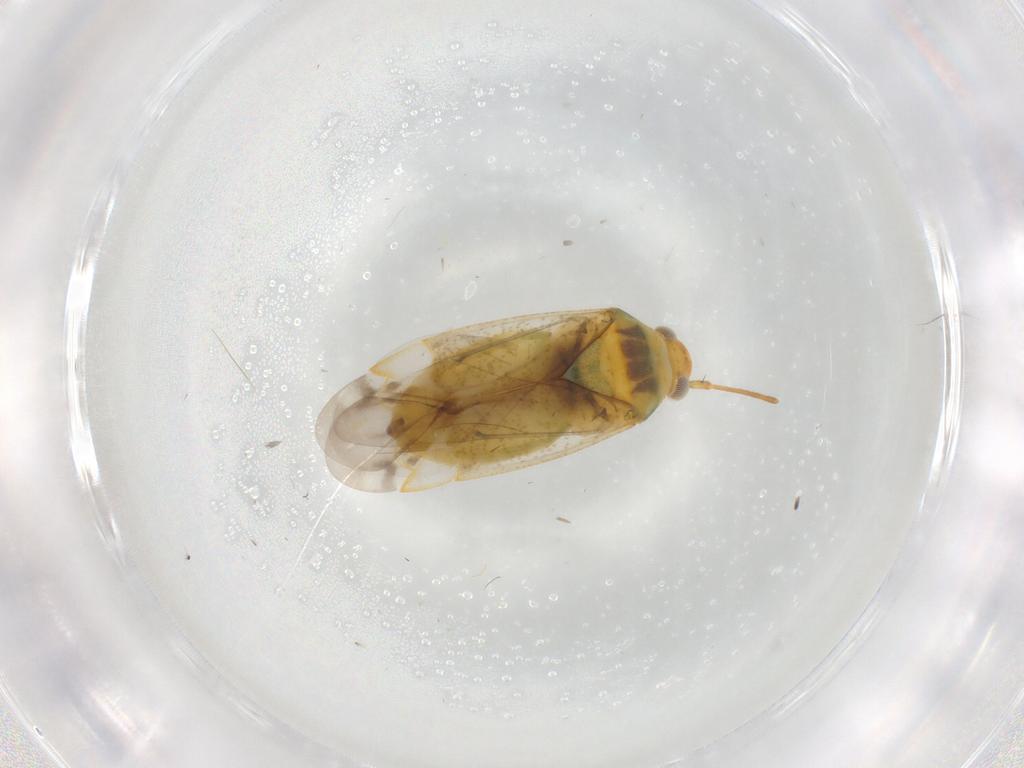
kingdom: Animalia
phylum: Arthropoda
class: Insecta
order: Hemiptera
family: Miridae
